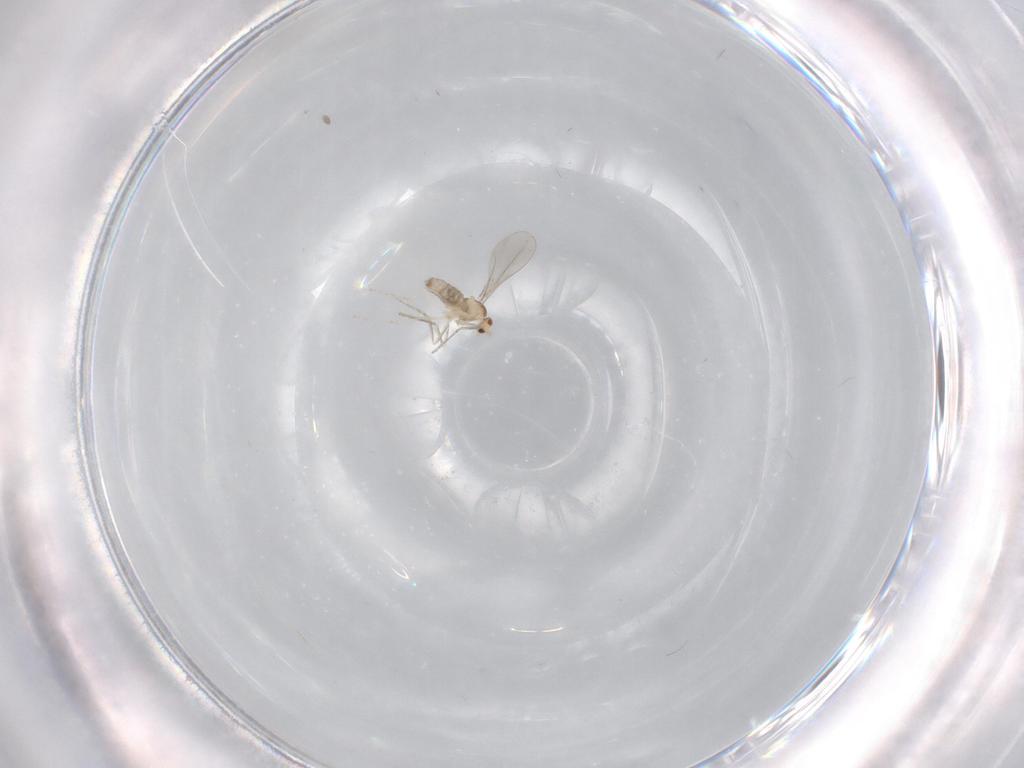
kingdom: Animalia
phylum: Arthropoda
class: Insecta
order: Diptera
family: Cecidomyiidae
